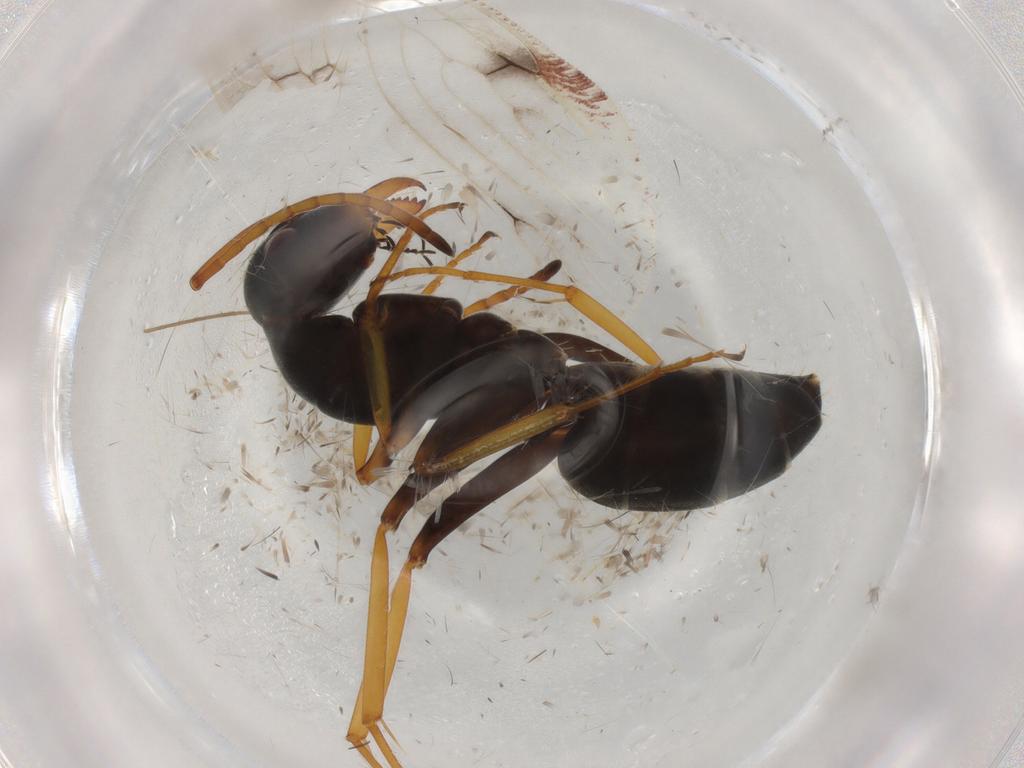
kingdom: Animalia
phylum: Arthropoda
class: Insecta
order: Hymenoptera
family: Formicidae
